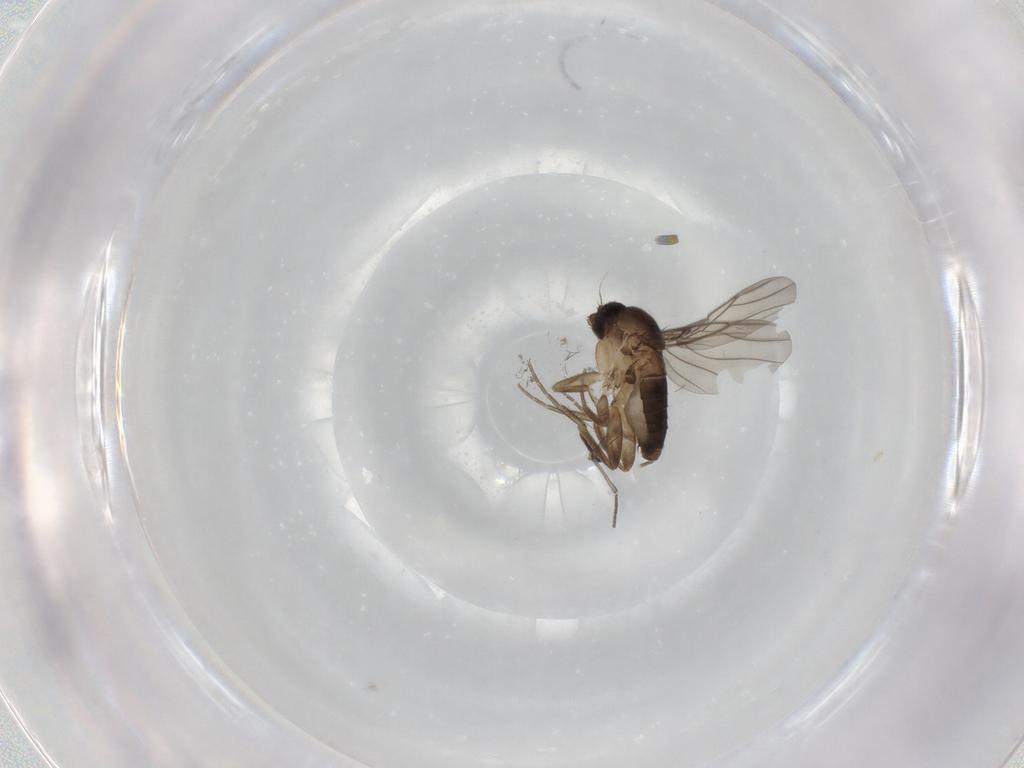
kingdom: Animalia
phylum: Arthropoda
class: Insecta
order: Diptera
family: Phoridae
